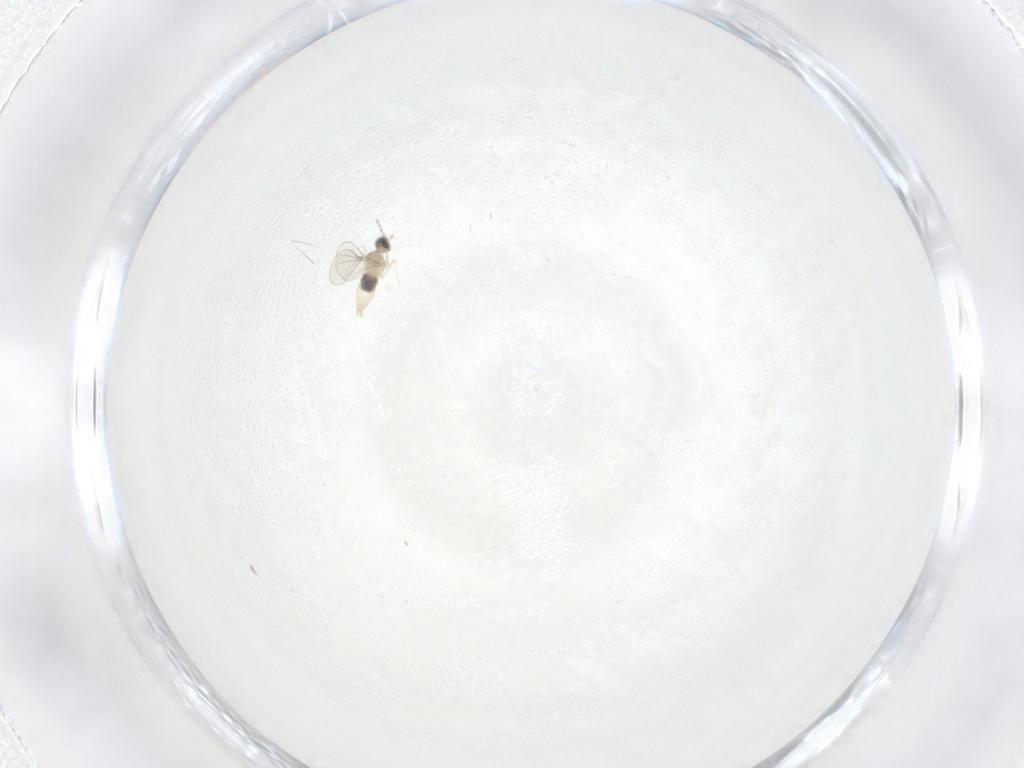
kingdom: Animalia
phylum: Arthropoda
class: Insecta
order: Diptera
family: Cecidomyiidae
